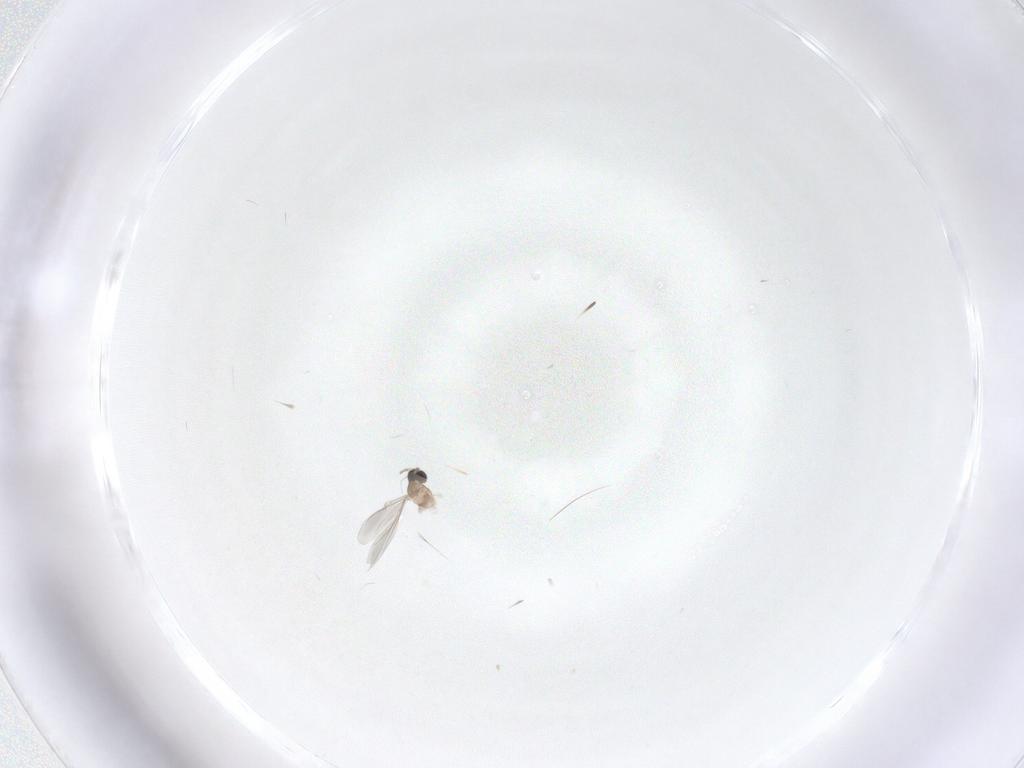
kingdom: Animalia
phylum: Arthropoda
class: Insecta
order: Diptera
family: Cecidomyiidae
